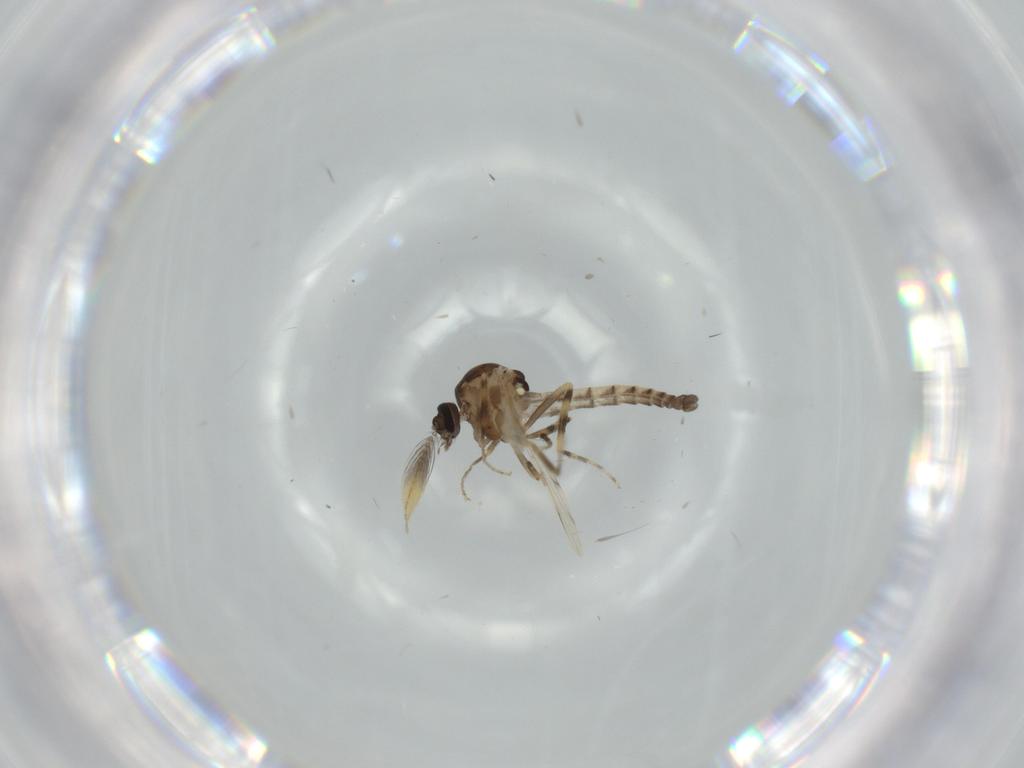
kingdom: Animalia
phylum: Arthropoda
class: Insecta
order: Diptera
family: Ceratopogonidae
